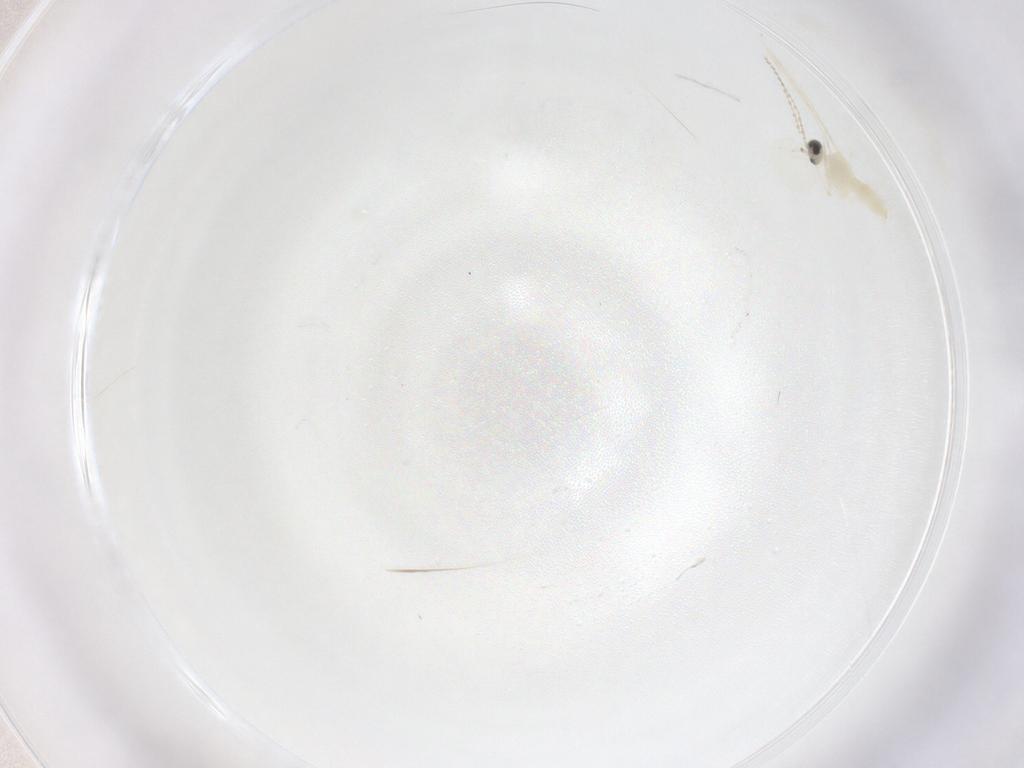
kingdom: Animalia
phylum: Arthropoda
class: Insecta
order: Diptera
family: Cecidomyiidae
